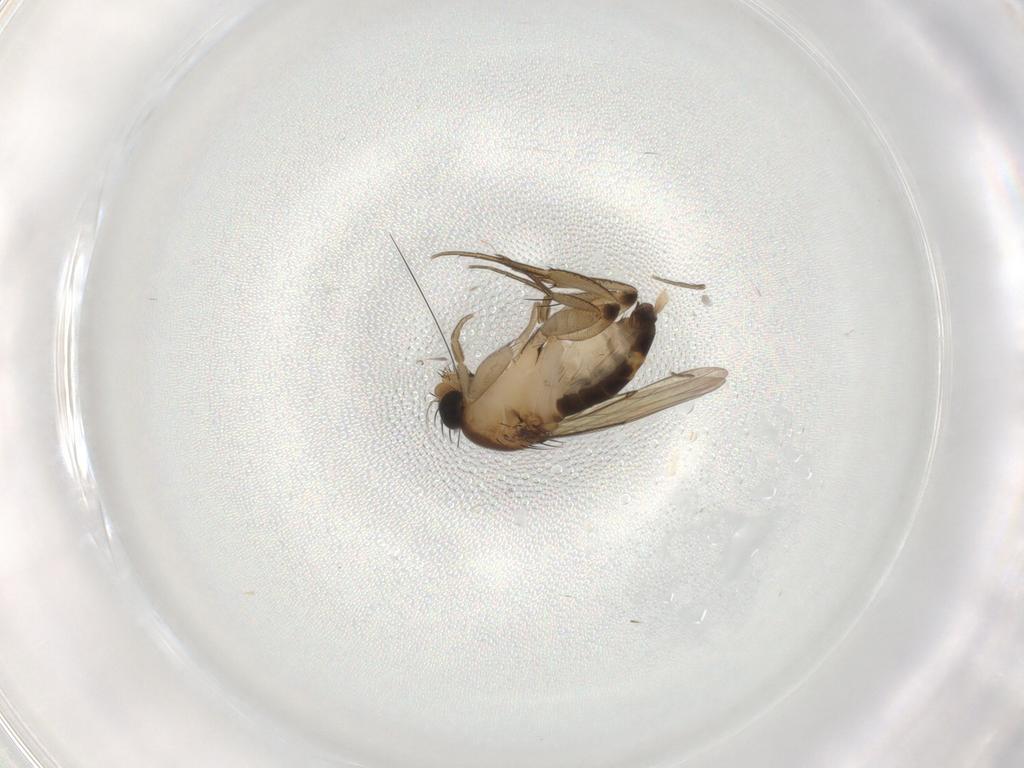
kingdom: Animalia
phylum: Arthropoda
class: Insecta
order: Diptera
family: Phoridae
